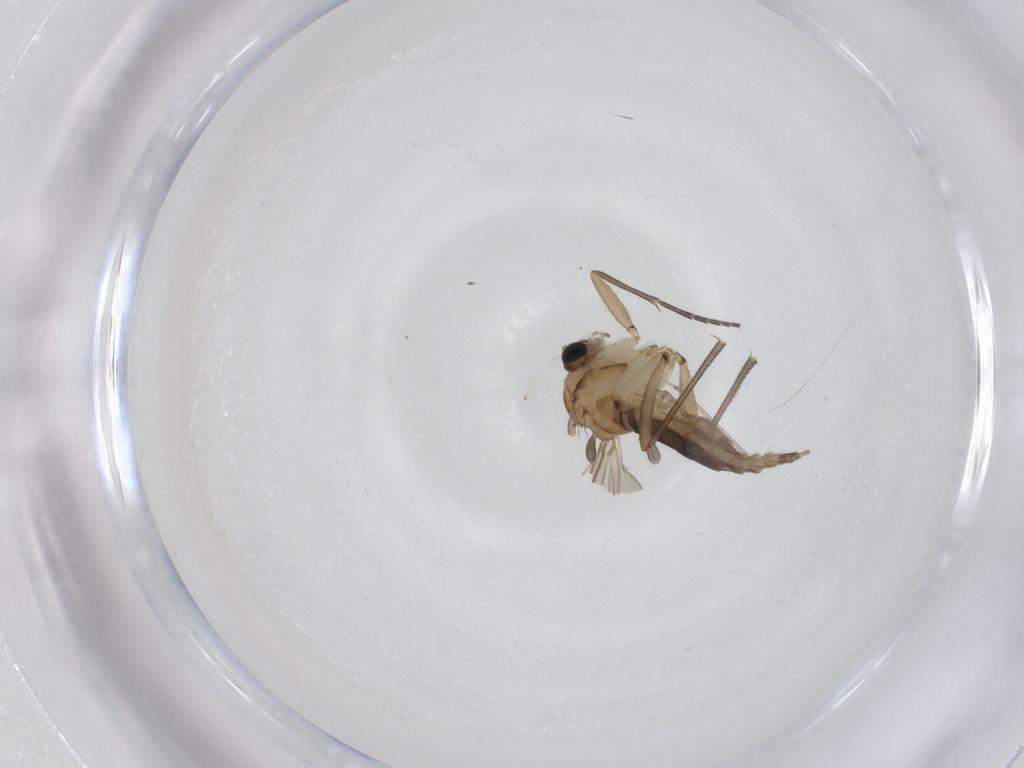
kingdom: Animalia
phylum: Arthropoda
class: Insecta
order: Diptera
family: Sciaridae
